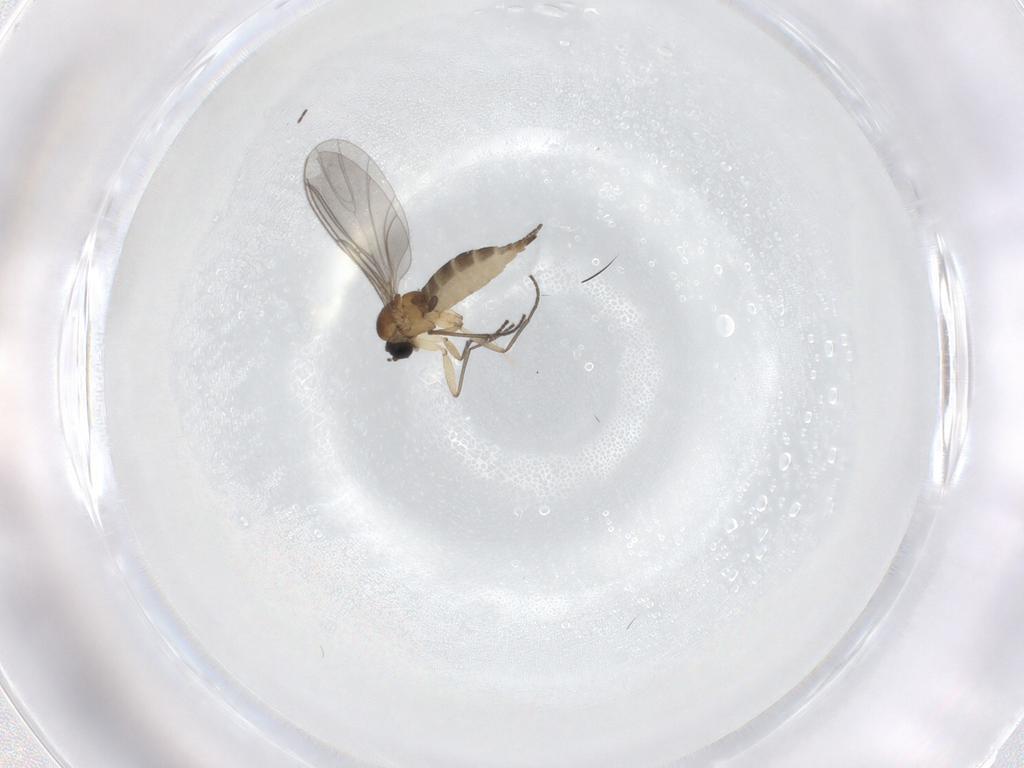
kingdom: Animalia
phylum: Arthropoda
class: Insecta
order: Diptera
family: Sciaridae
